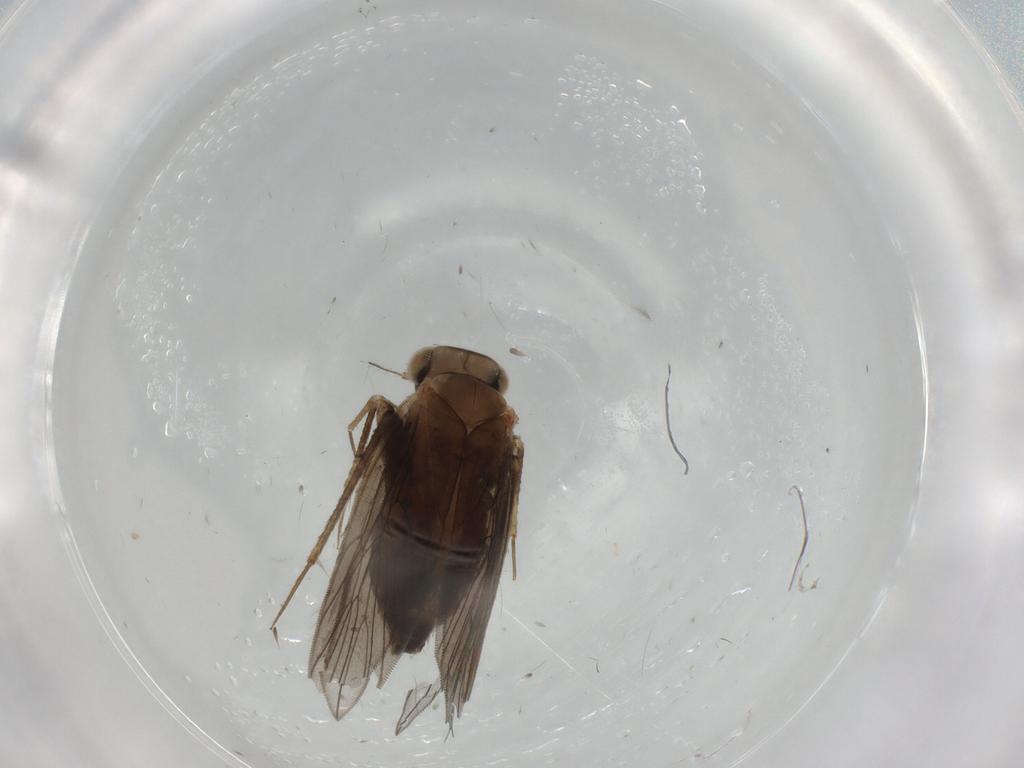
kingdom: Animalia
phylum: Arthropoda
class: Insecta
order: Psocodea
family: Lepidopsocidae
